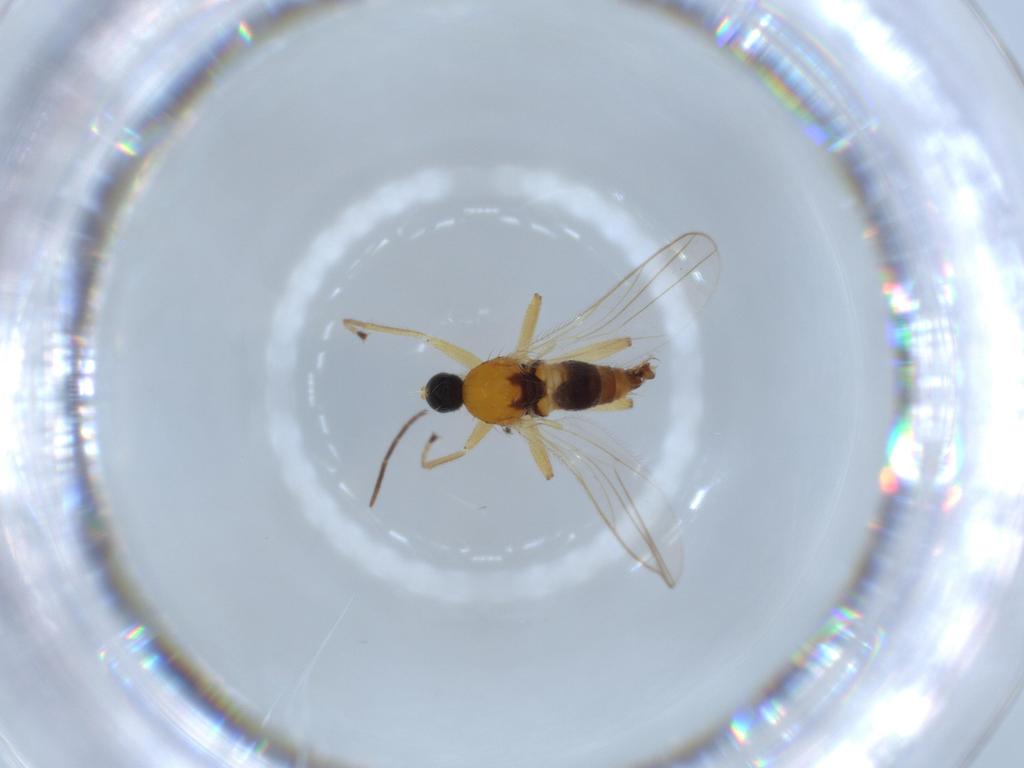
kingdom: Animalia
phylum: Arthropoda
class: Insecta
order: Diptera
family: Hybotidae
